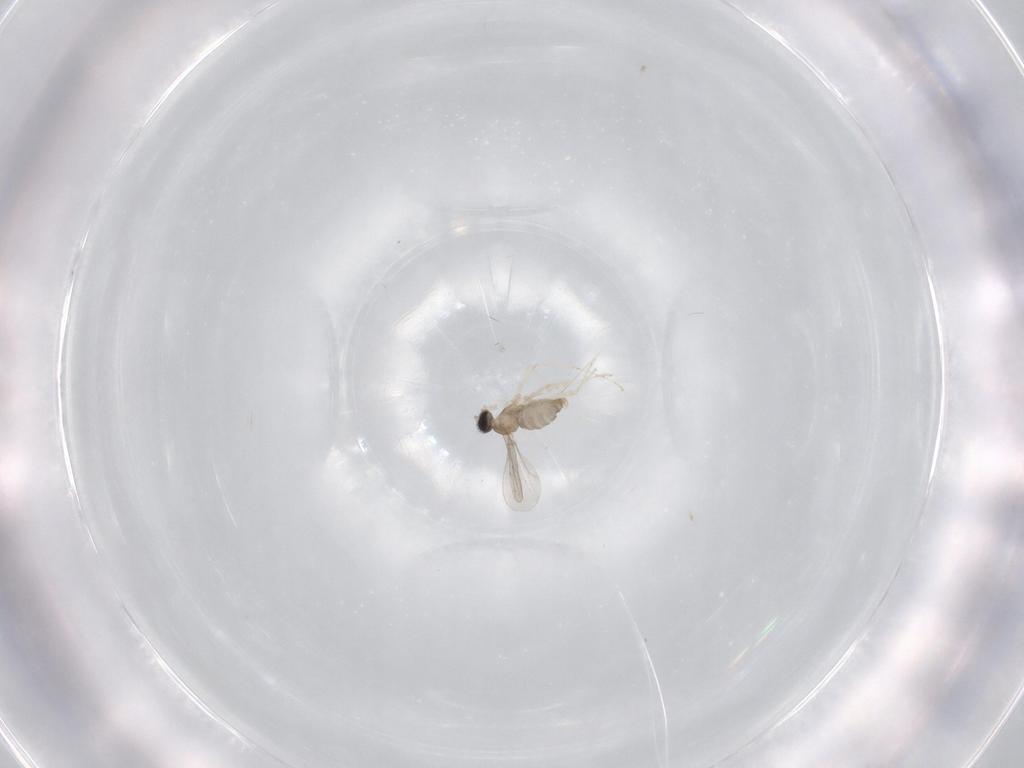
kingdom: Animalia
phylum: Arthropoda
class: Insecta
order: Diptera
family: Cecidomyiidae
